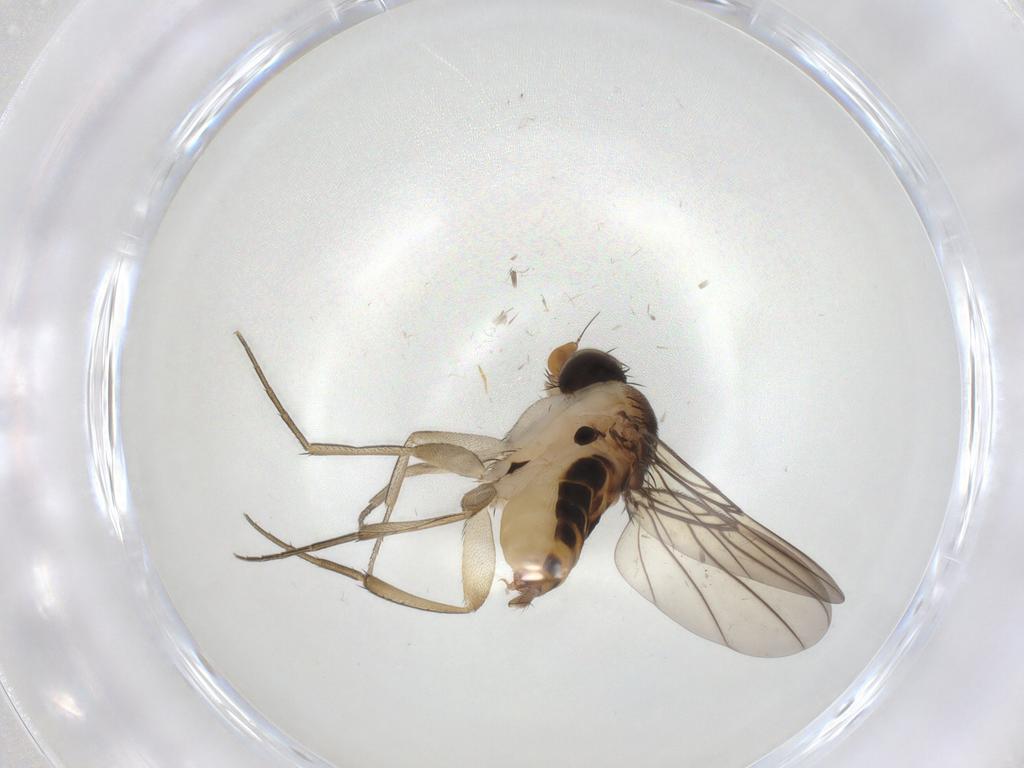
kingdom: Animalia
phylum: Arthropoda
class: Insecta
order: Diptera
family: Phoridae
